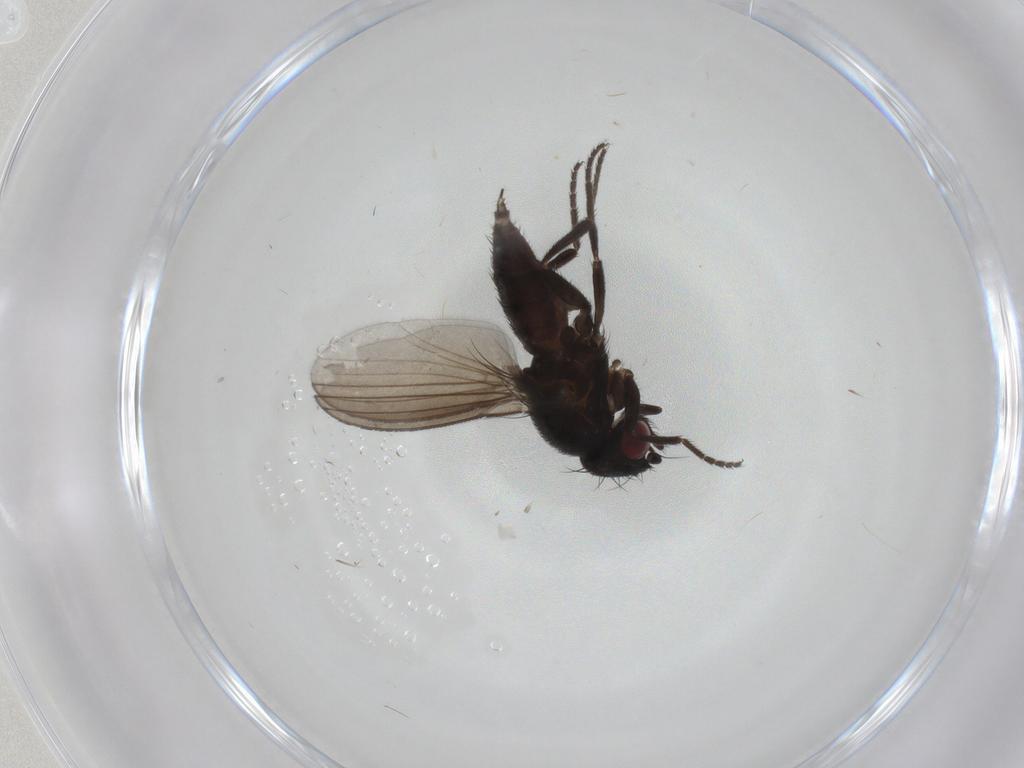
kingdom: Animalia
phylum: Arthropoda
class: Insecta
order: Diptera
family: Milichiidae
